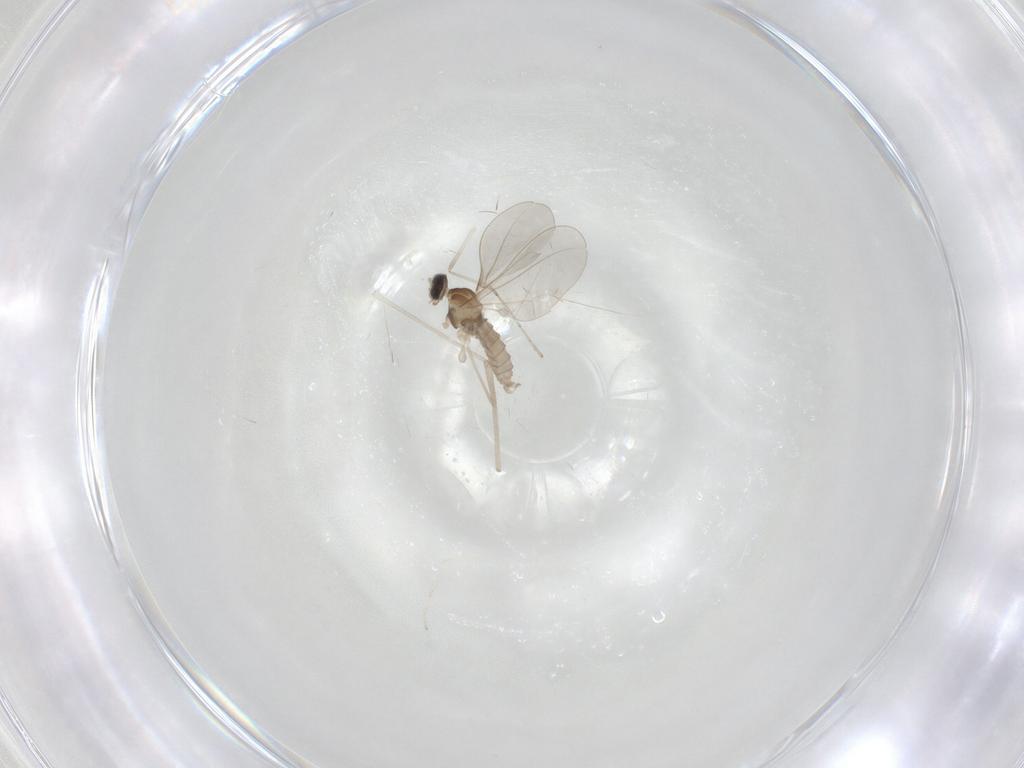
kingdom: Animalia
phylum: Arthropoda
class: Insecta
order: Diptera
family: Cecidomyiidae
